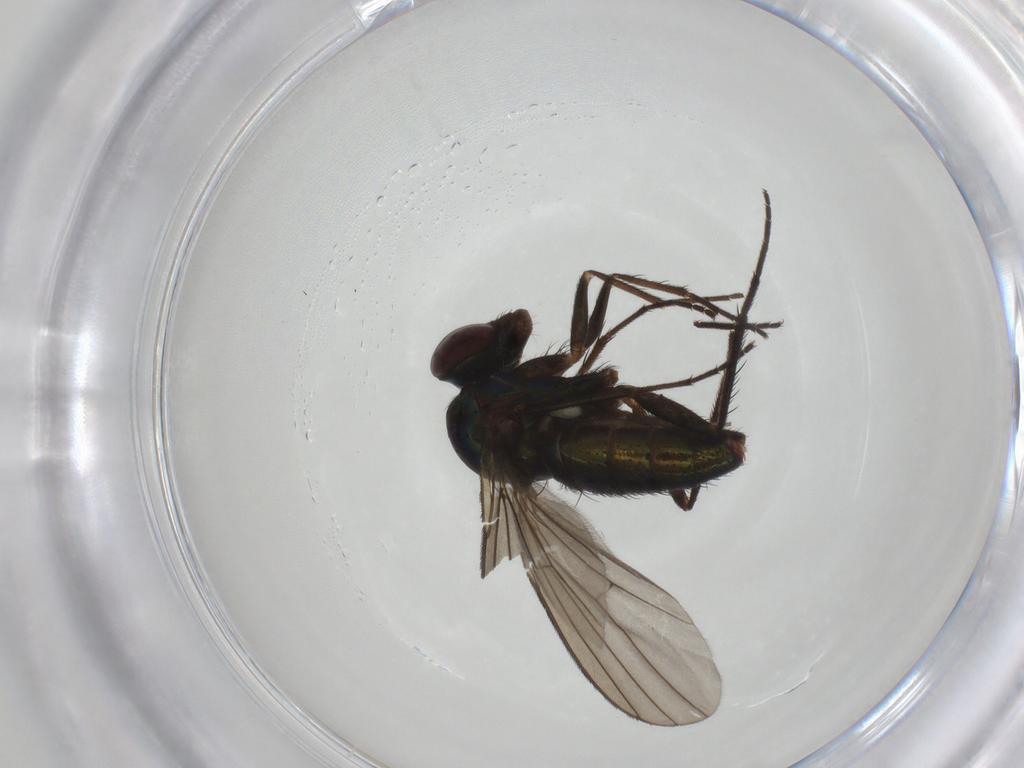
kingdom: Animalia
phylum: Arthropoda
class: Insecta
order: Diptera
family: Dolichopodidae
